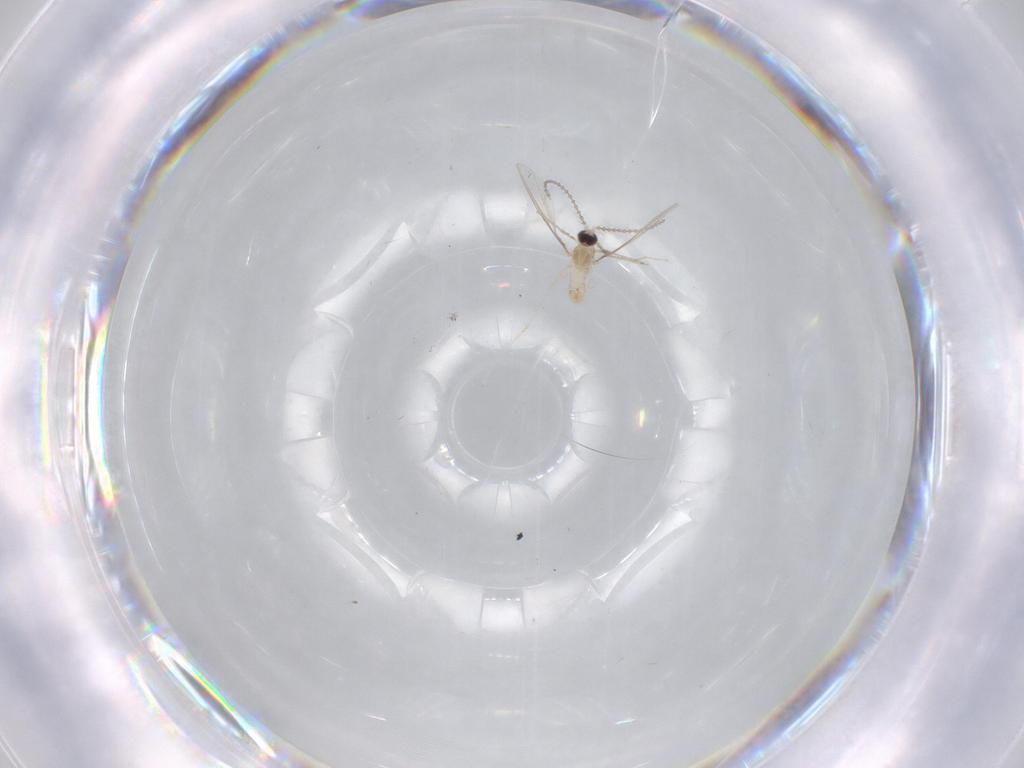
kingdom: Animalia
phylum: Arthropoda
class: Insecta
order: Diptera
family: Cecidomyiidae
